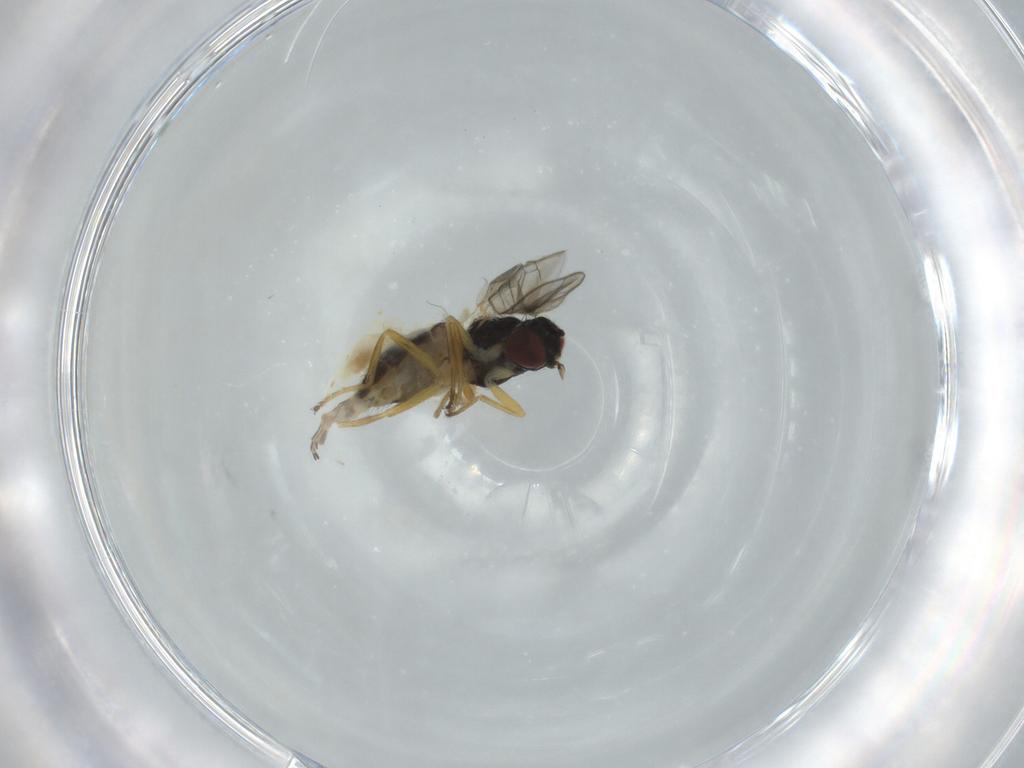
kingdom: Animalia
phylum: Arthropoda
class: Insecta
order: Diptera
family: Chloropidae
